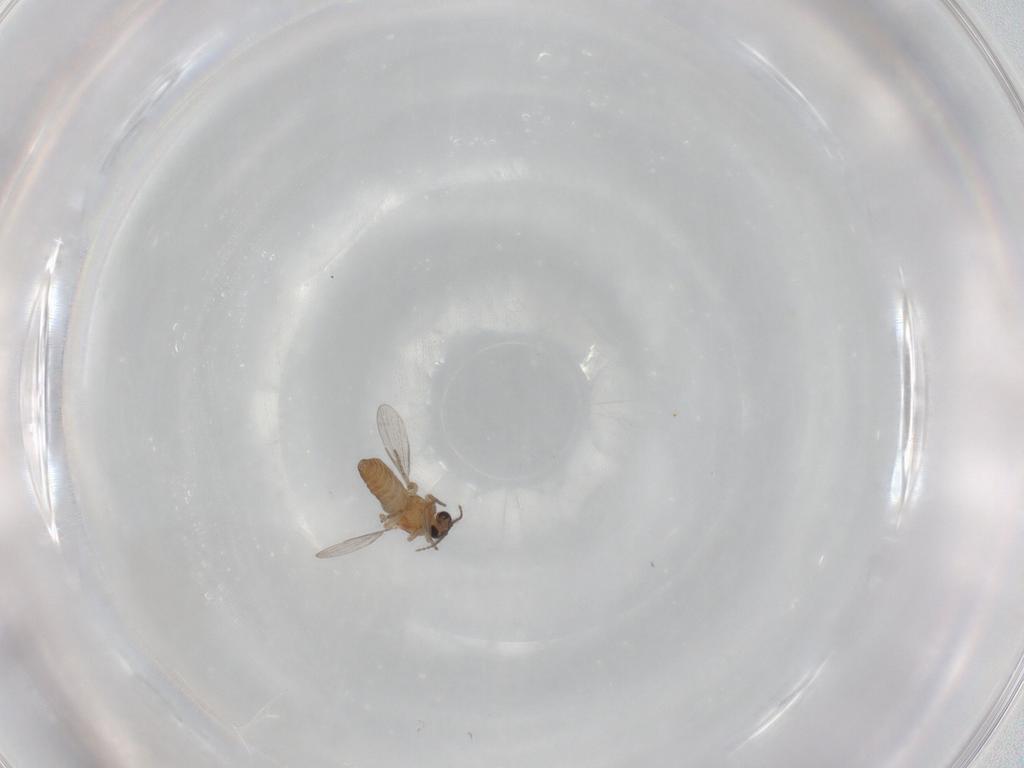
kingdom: Animalia
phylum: Arthropoda
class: Insecta
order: Diptera
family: Ceratopogonidae
